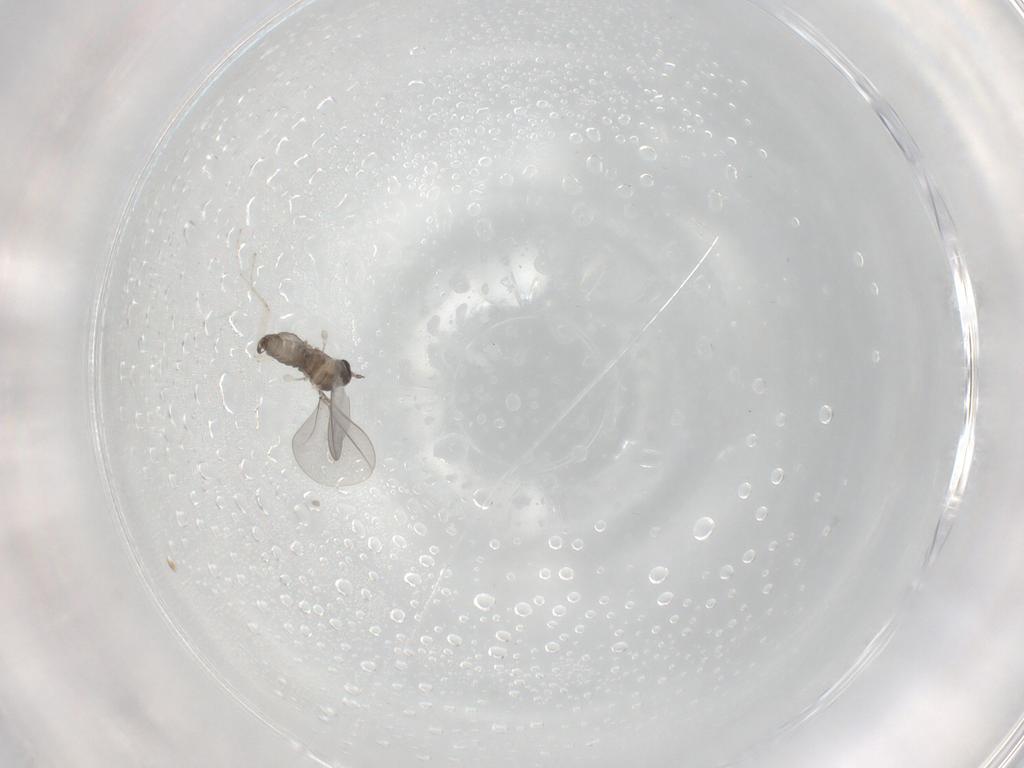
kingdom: Animalia
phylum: Arthropoda
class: Insecta
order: Diptera
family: Cecidomyiidae
